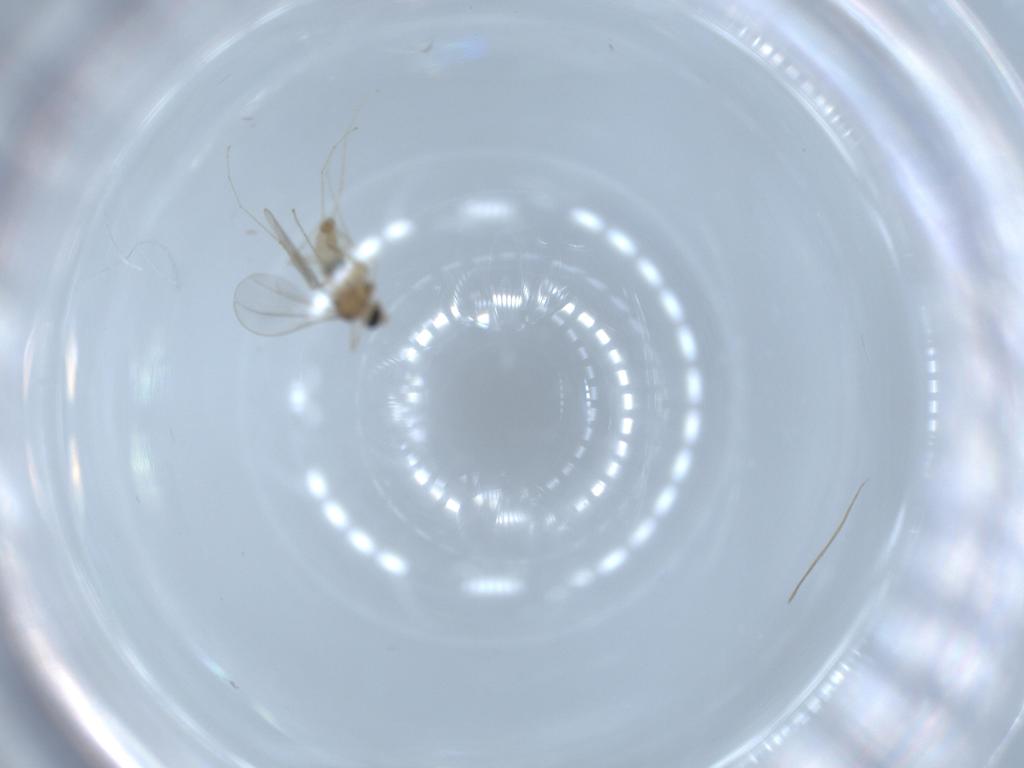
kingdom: Animalia
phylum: Arthropoda
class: Insecta
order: Diptera
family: Cecidomyiidae
